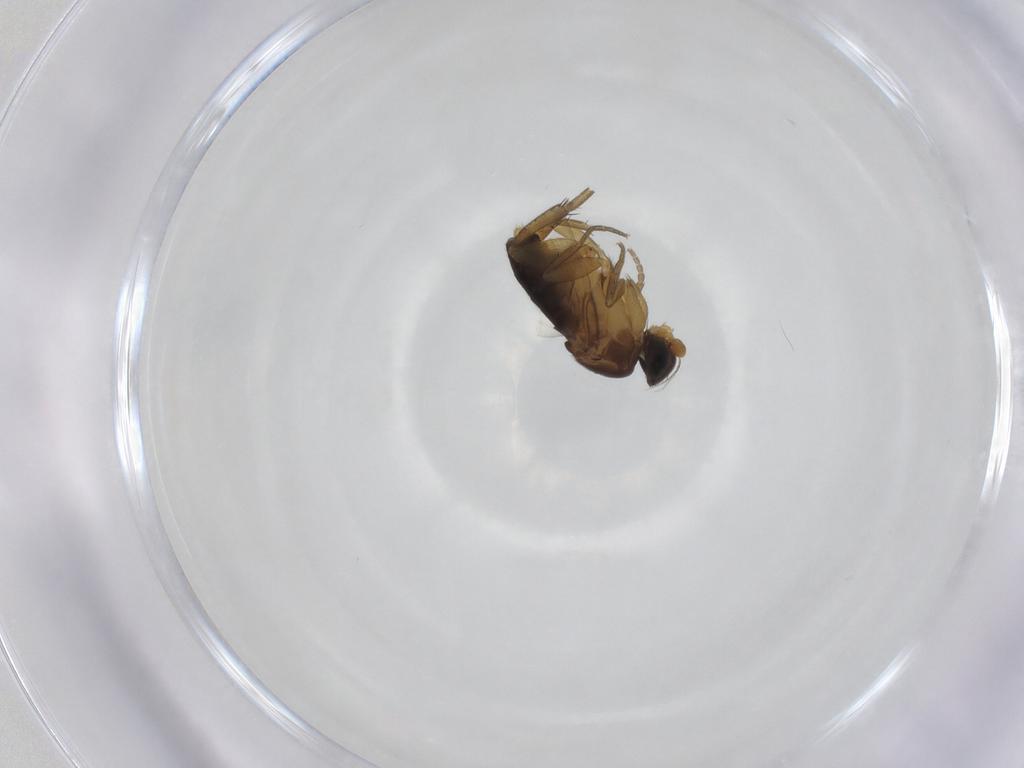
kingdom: Animalia
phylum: Arthropoda
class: Insecta
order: Diptera
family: Phoridae
